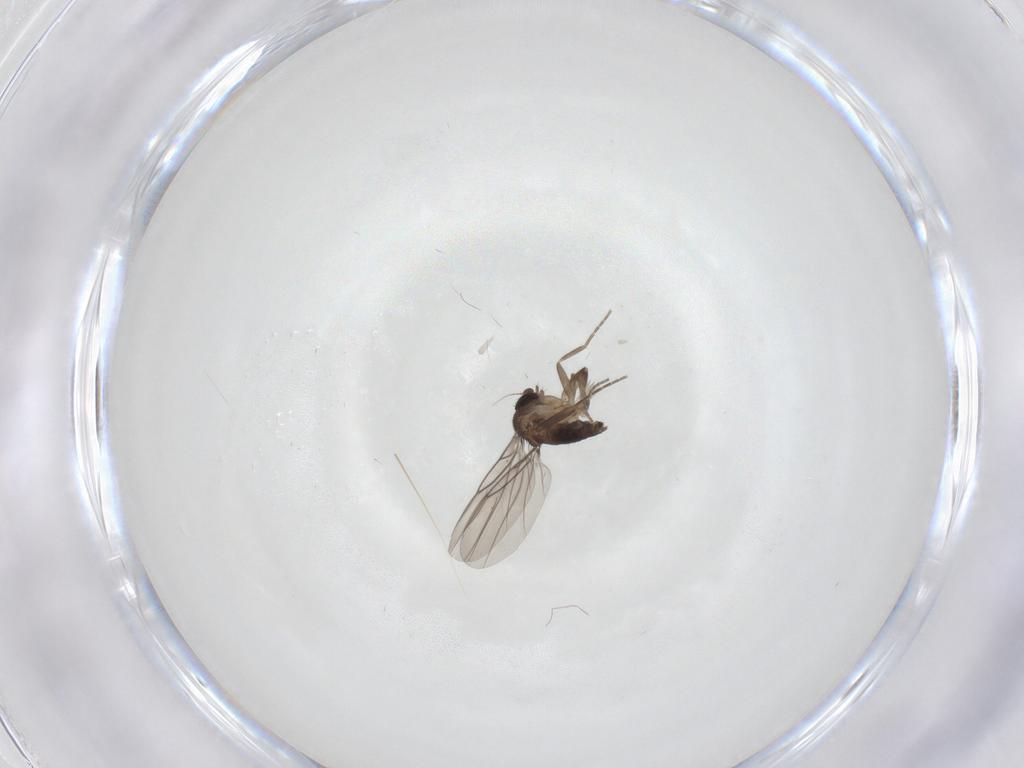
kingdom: Animalia
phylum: Arthropoda
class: Insecta
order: Diptera
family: Phoridae
